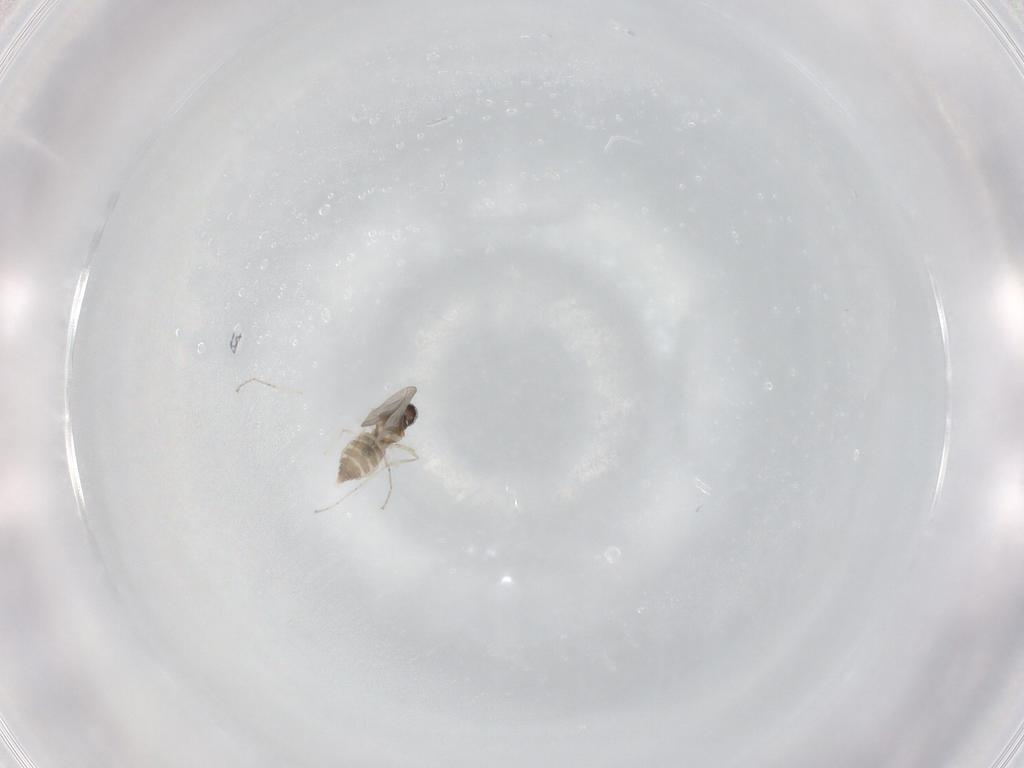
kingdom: Animalia
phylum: Arthropoda
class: Insecta
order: Diptera
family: Cecidomyiidae
